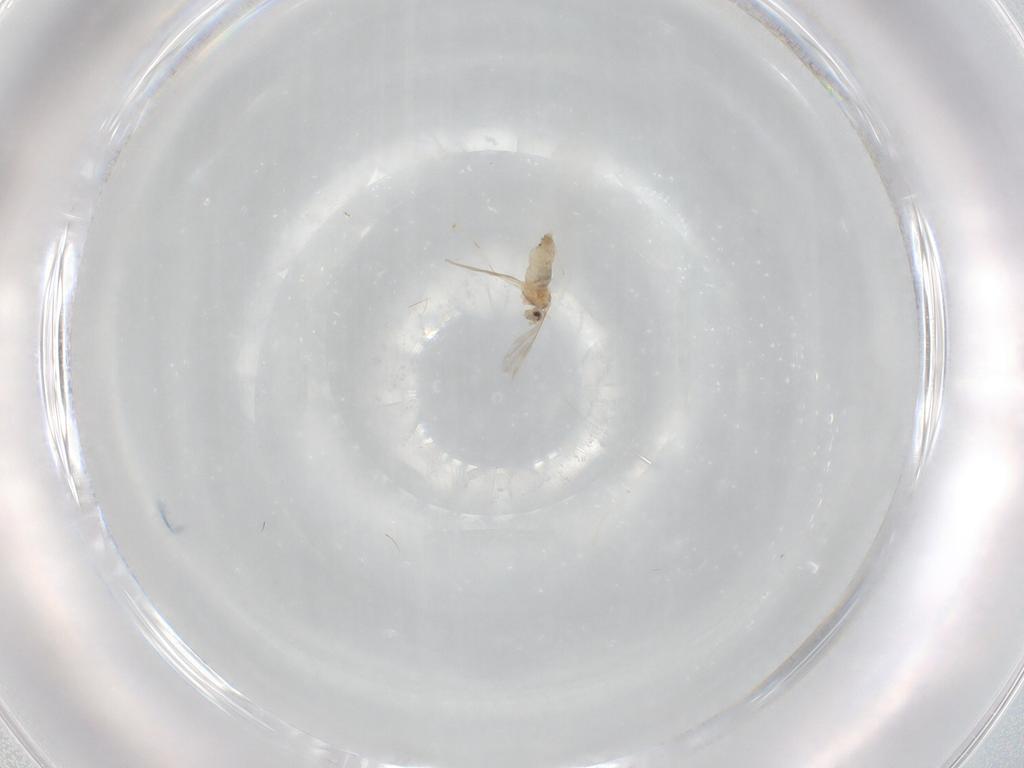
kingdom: Animalia
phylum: Arthropoda
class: Insecta
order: Diptera
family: Cecidomyiidae
